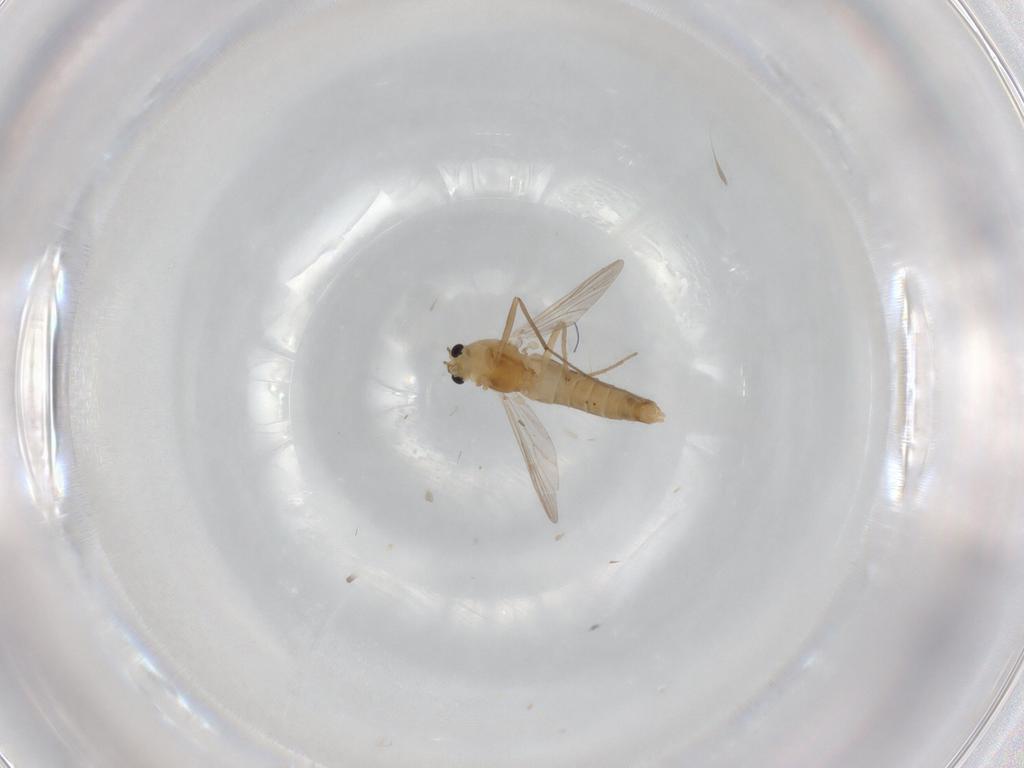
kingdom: Animalia
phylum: Arthropoda
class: Insecta
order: Diptera
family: Chironomidae
